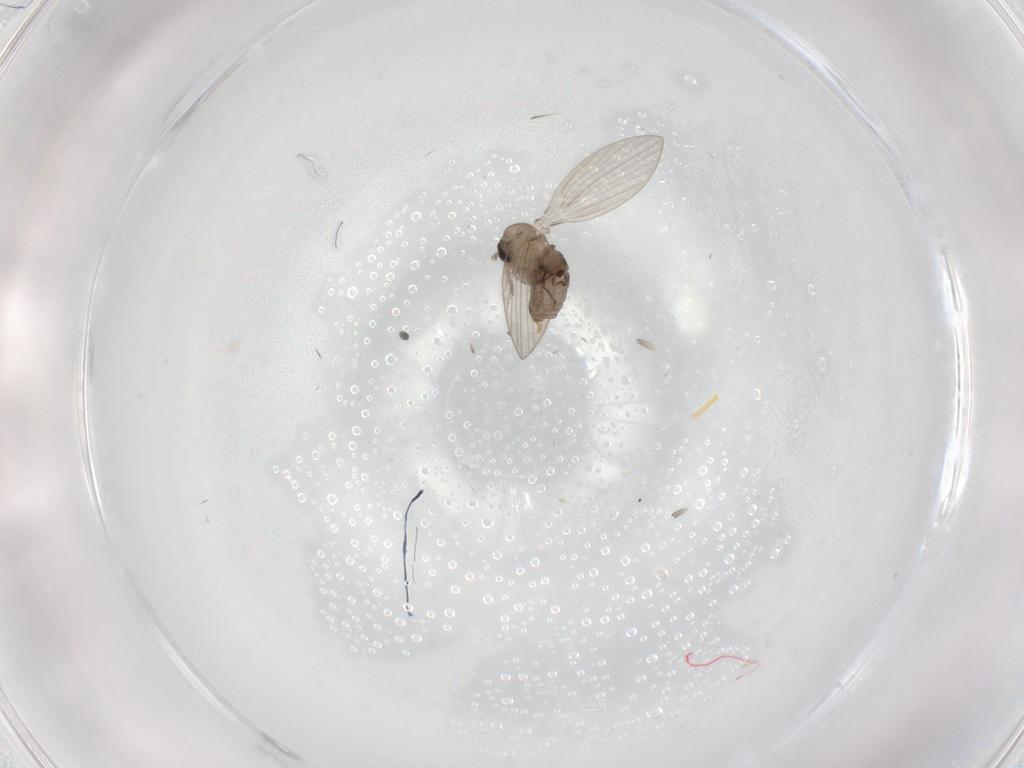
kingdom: Animalia
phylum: Arthropoda
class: Insecta
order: Diptera
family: Psychodidae
